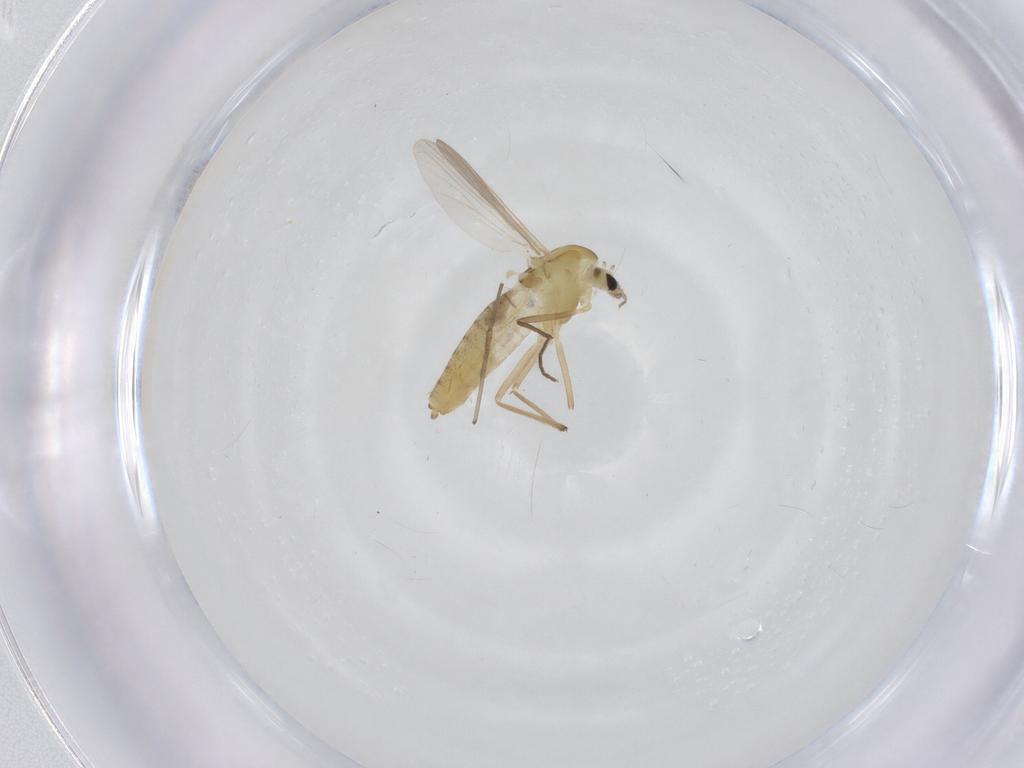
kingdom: Animalia
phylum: Arthropoda
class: Insecta
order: Diptera
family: Chironomidae
